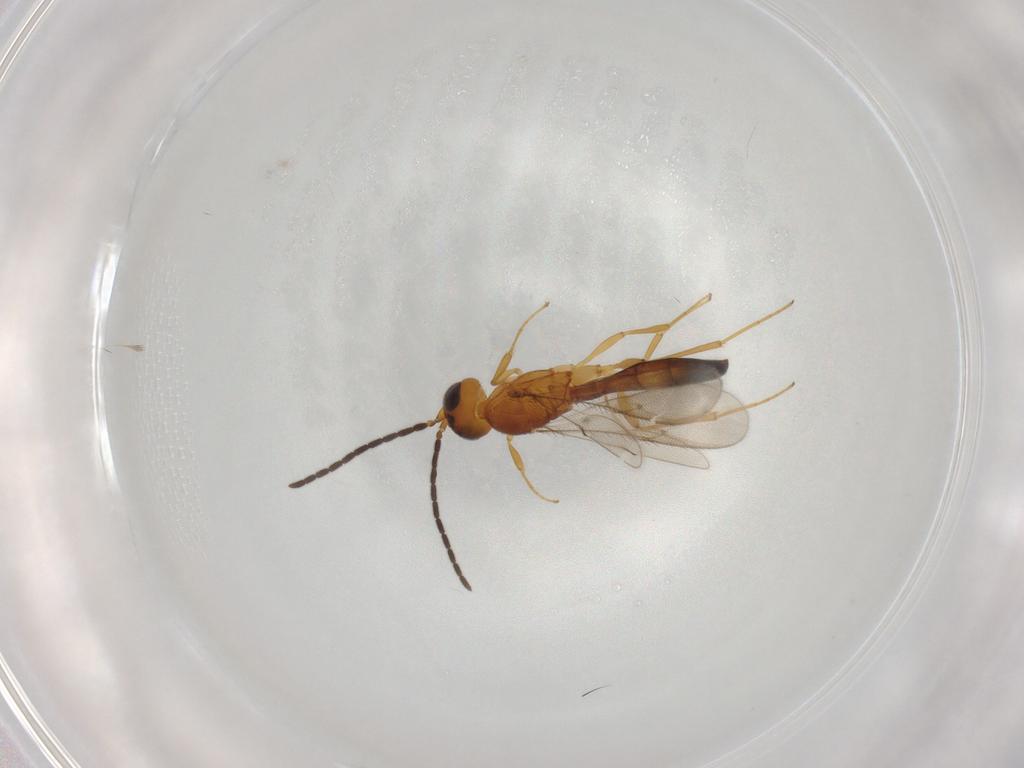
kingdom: Animalia
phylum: Arthropoda
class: Insecta
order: Hymenoptera
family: Scelionidae
